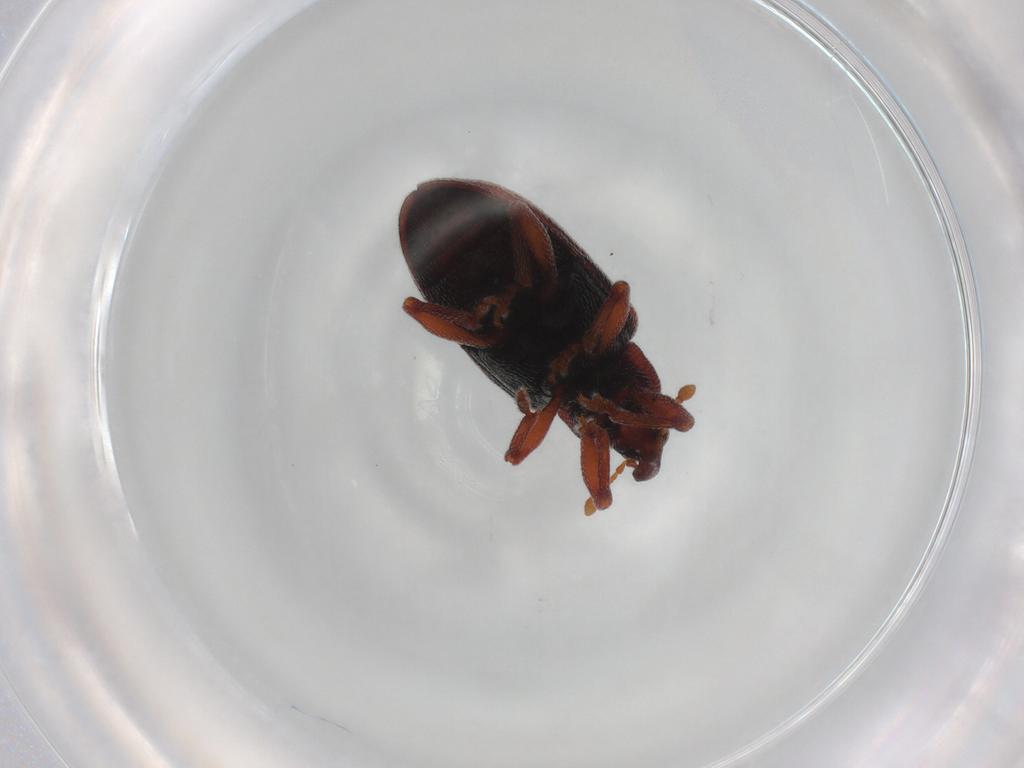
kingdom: Animalia
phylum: Arthropoda
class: Insecta
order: Coleoptera
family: Curculionidae
